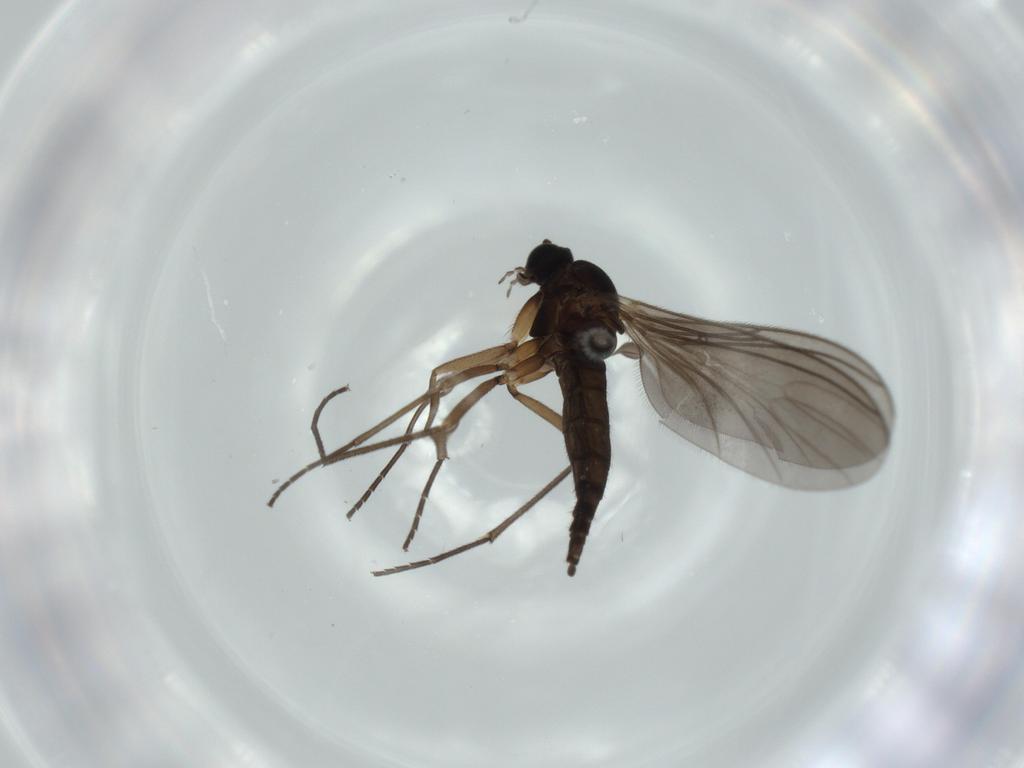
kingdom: Animalia
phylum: Arthropoda
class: Insecta
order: Diptera
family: Sciaridae
